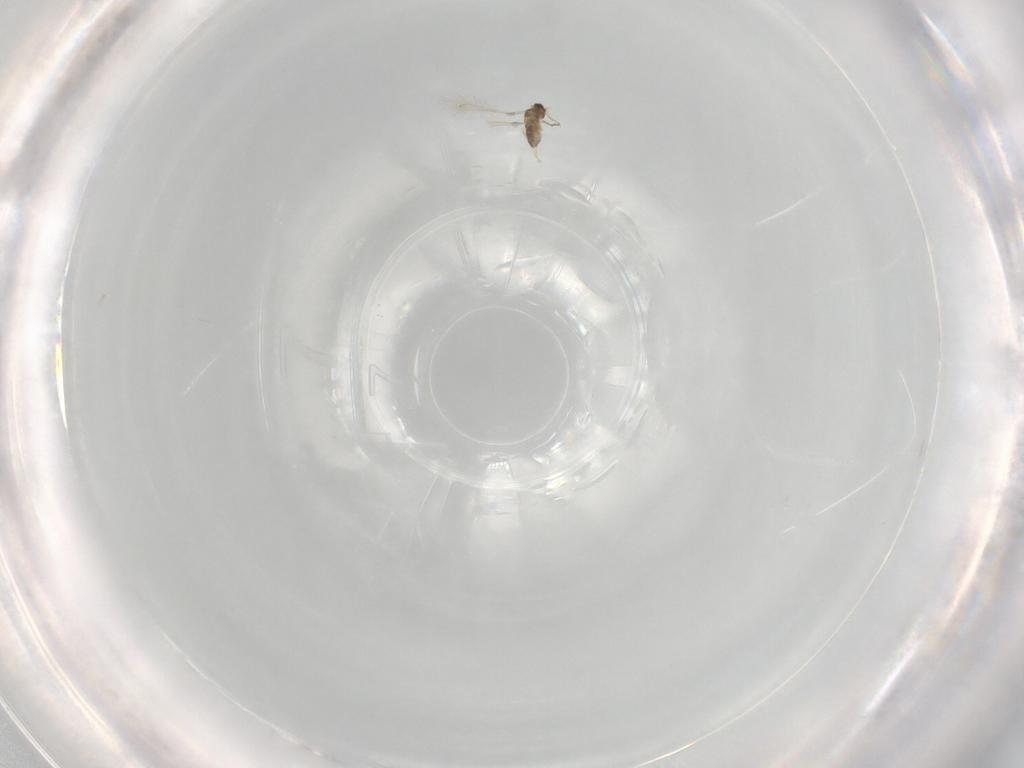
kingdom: Animalia
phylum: Arthropoda
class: Insecta
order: Hymenoptera
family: Mymaridae
